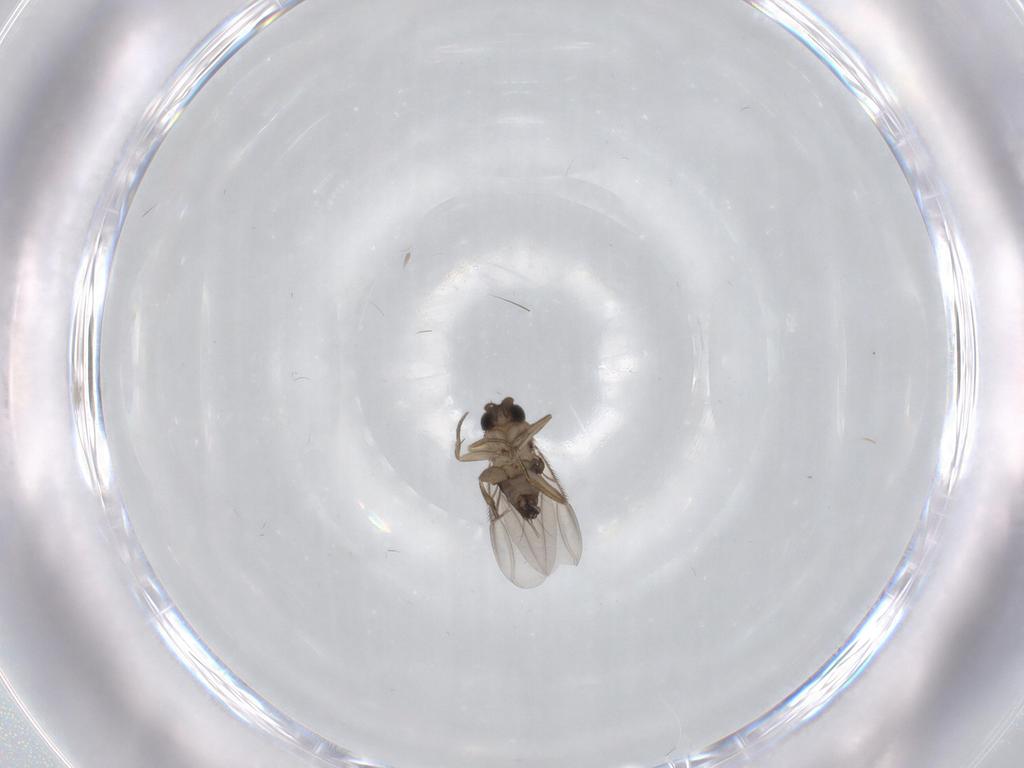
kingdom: Animalia
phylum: Arthropoda
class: Insecta
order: Diptera
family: Phoridae
